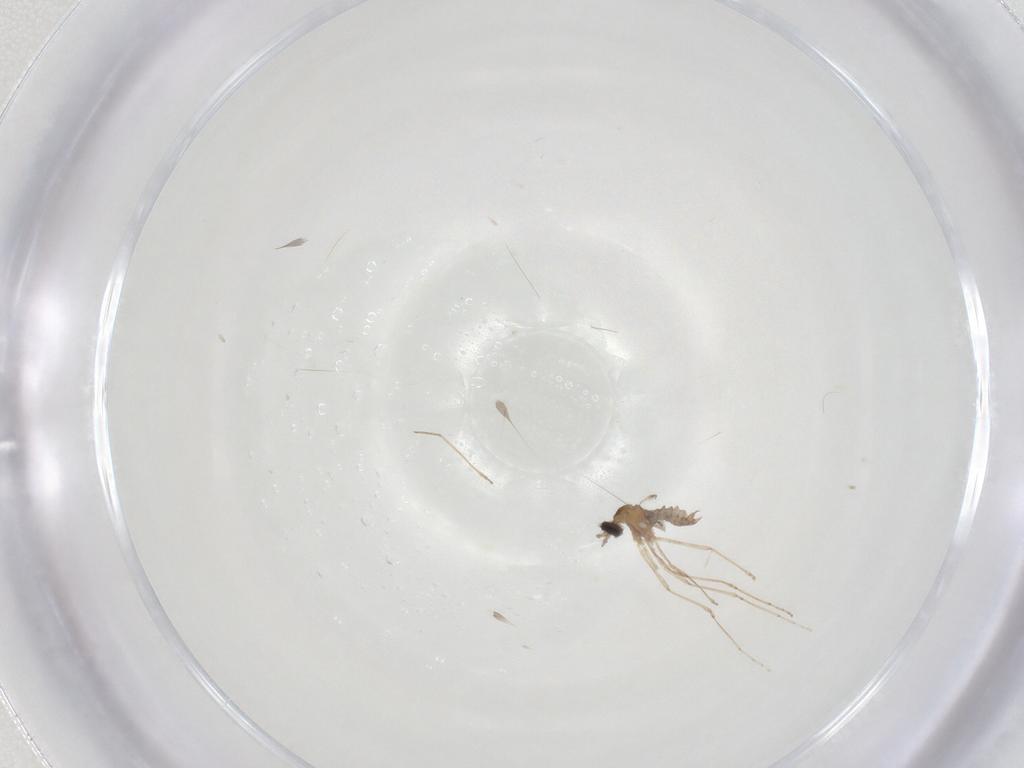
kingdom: Animalia
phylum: Arthropoda
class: Insecta
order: Diptera
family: Cecidomyiidae
